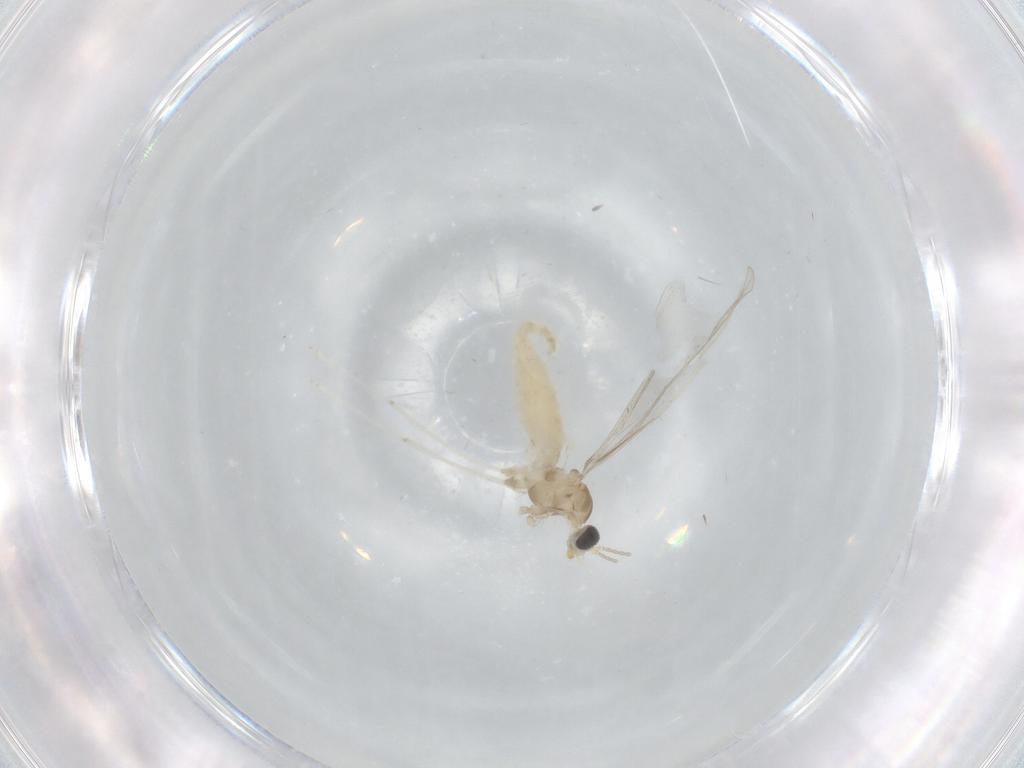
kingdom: Animalia
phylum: Arthropoda
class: Insecta
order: Diptera
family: Cecidomyiidae
